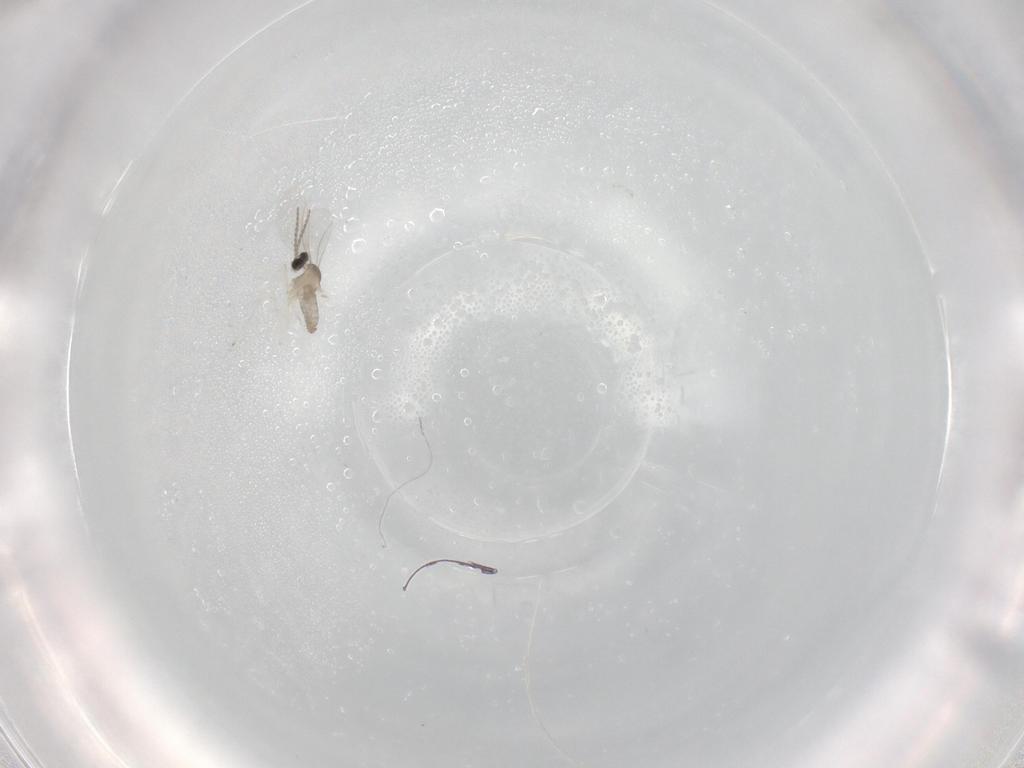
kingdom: Animalia
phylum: Arthropoda
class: Insecta
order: Diptera
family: Cecidomyiidae
